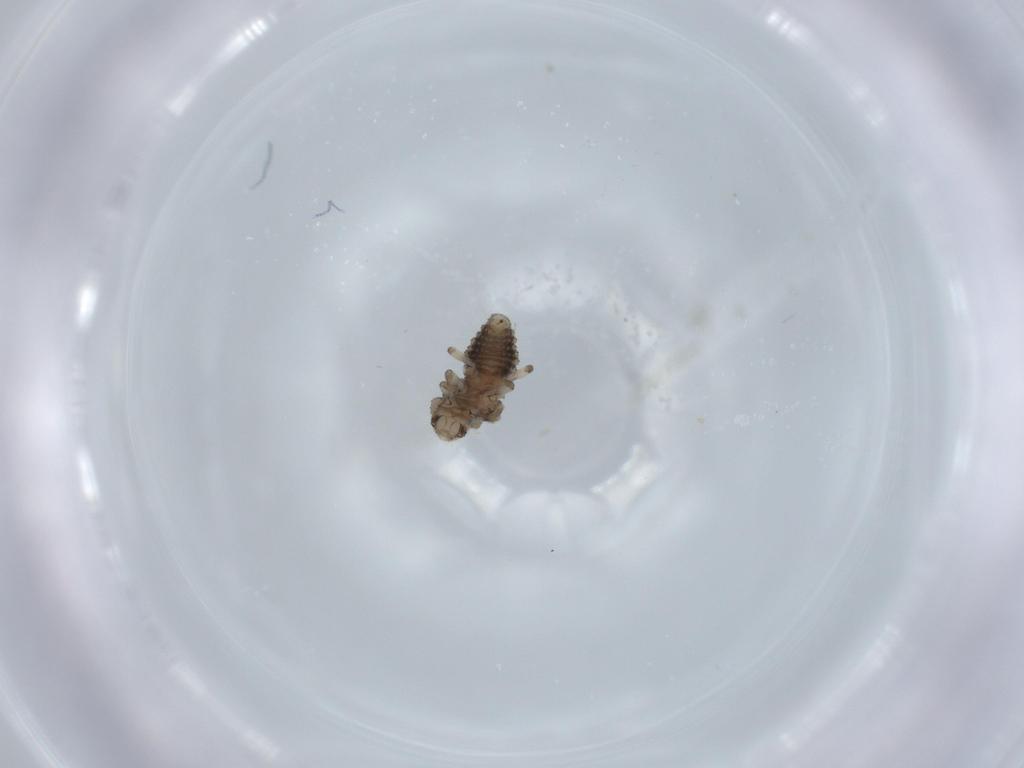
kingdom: Animalia
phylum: Arthropoda
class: Insecta
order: Coleoptera
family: Coccinellidae
